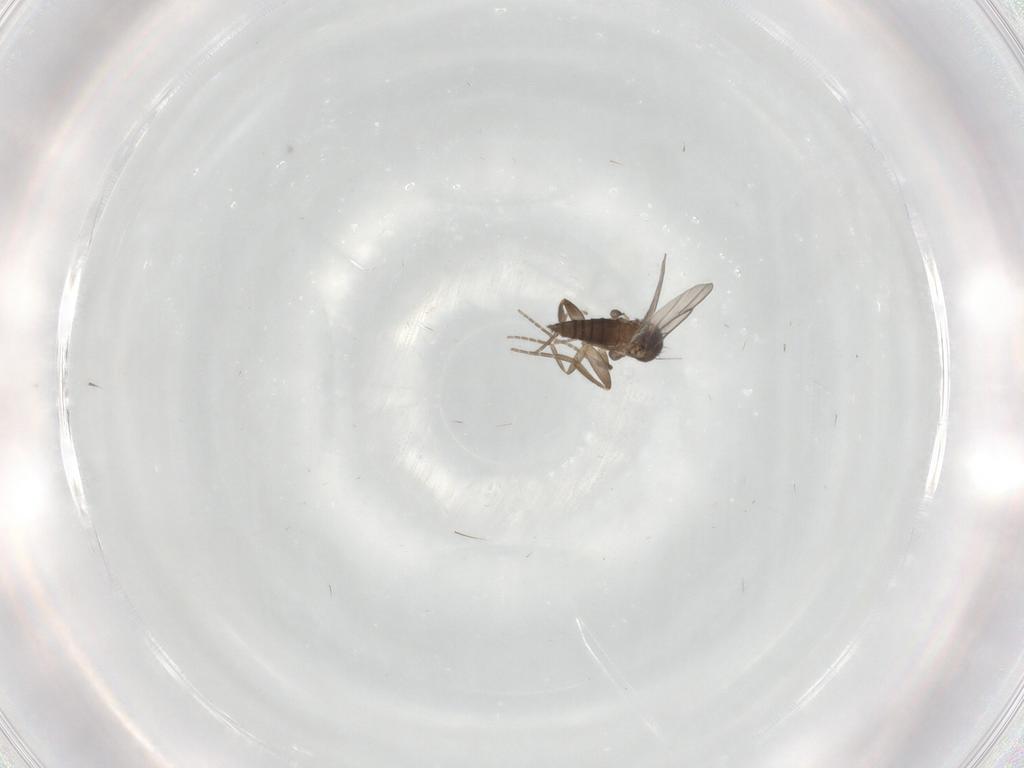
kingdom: Animalia
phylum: Arthropoda
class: Insecta
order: Diptera
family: Phoridae
